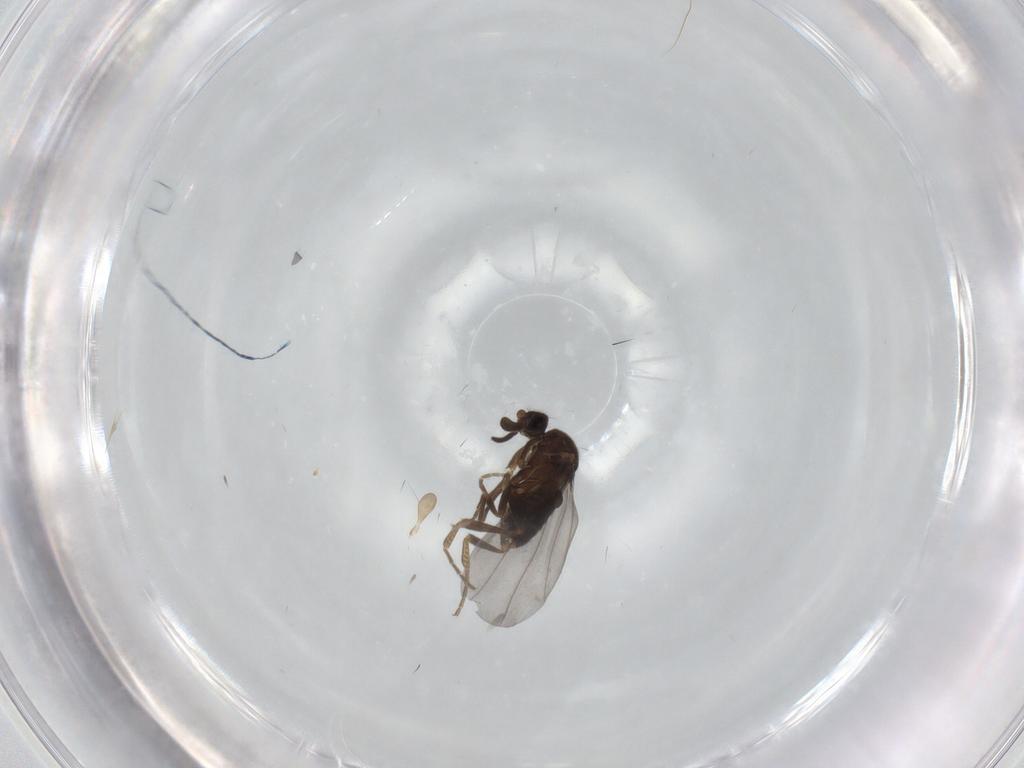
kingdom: Animalia
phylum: Arthropoda
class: Insecta
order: Diptera
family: Phoridae
